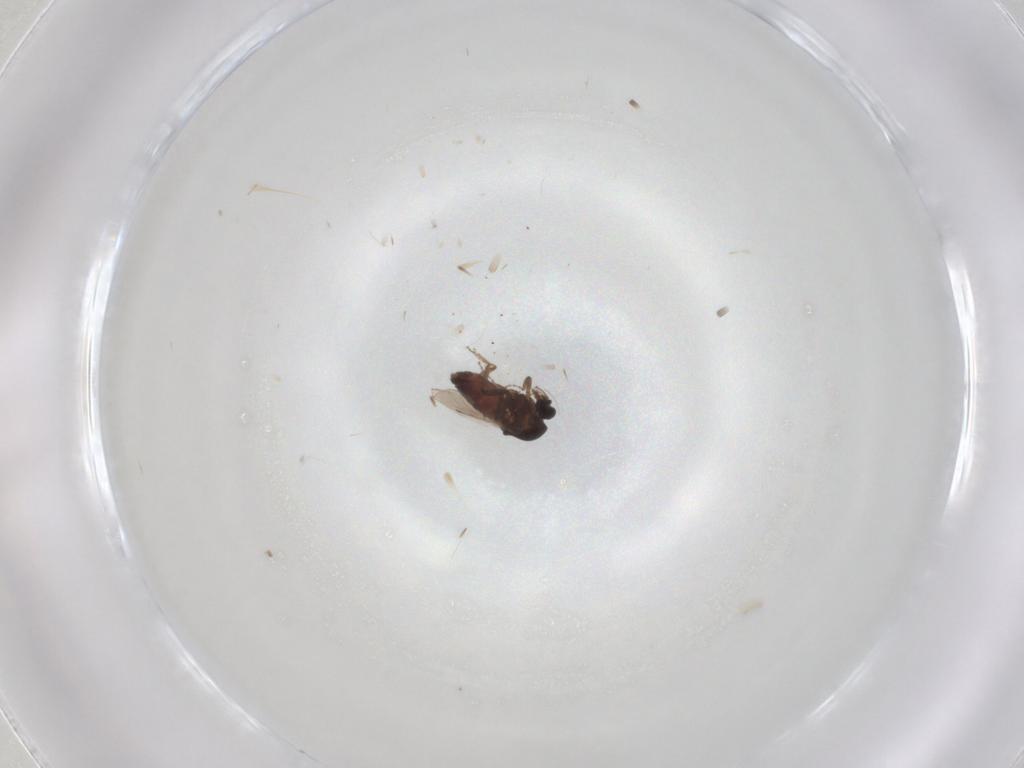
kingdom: Animalia
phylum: Arthropoda
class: Insecta
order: Diptera
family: Ceratopogonidae
